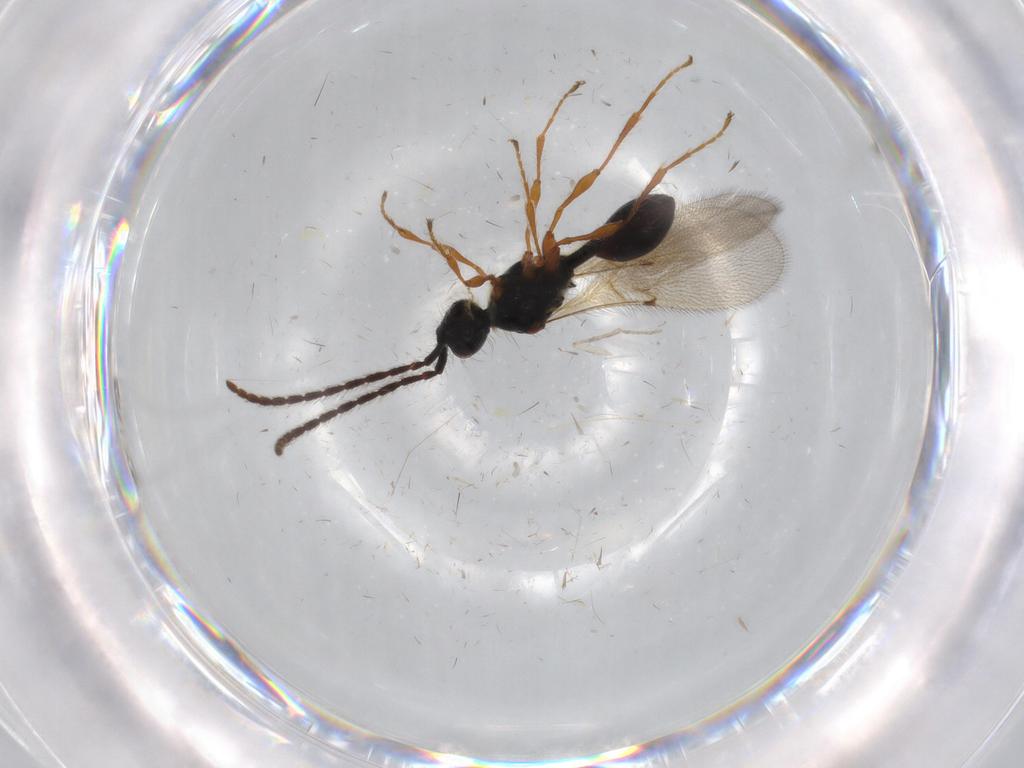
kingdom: Animalia
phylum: Arthropoda
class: Insecta
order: Hymenoptera
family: Diapriidae
